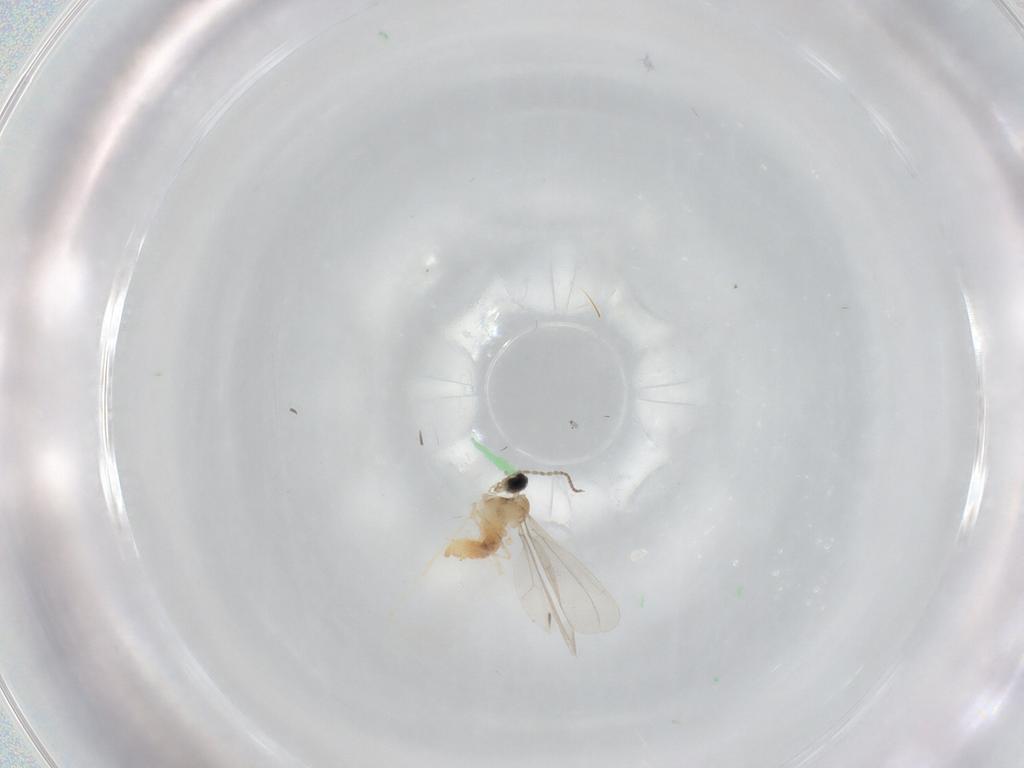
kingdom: Animalia
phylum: Arthropoda
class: Insecta
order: Diptera
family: Cecidomyiidae
